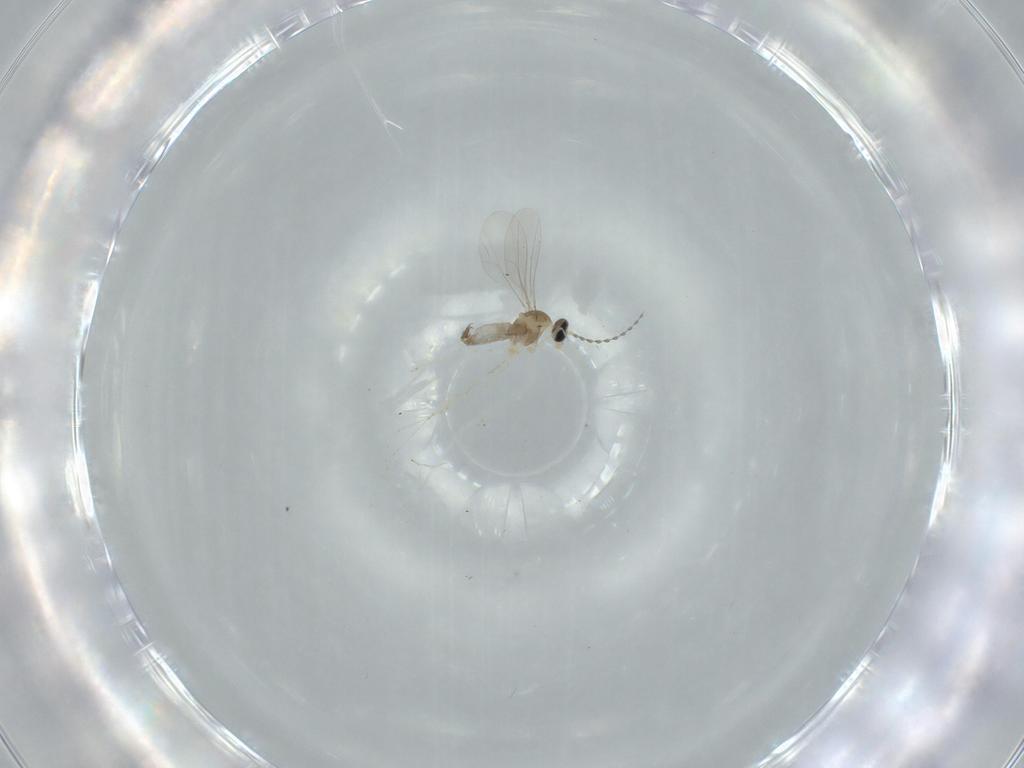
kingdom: Animalia
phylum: Arthropoda
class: Insecta
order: Diptera
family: Cecidomyiidae
